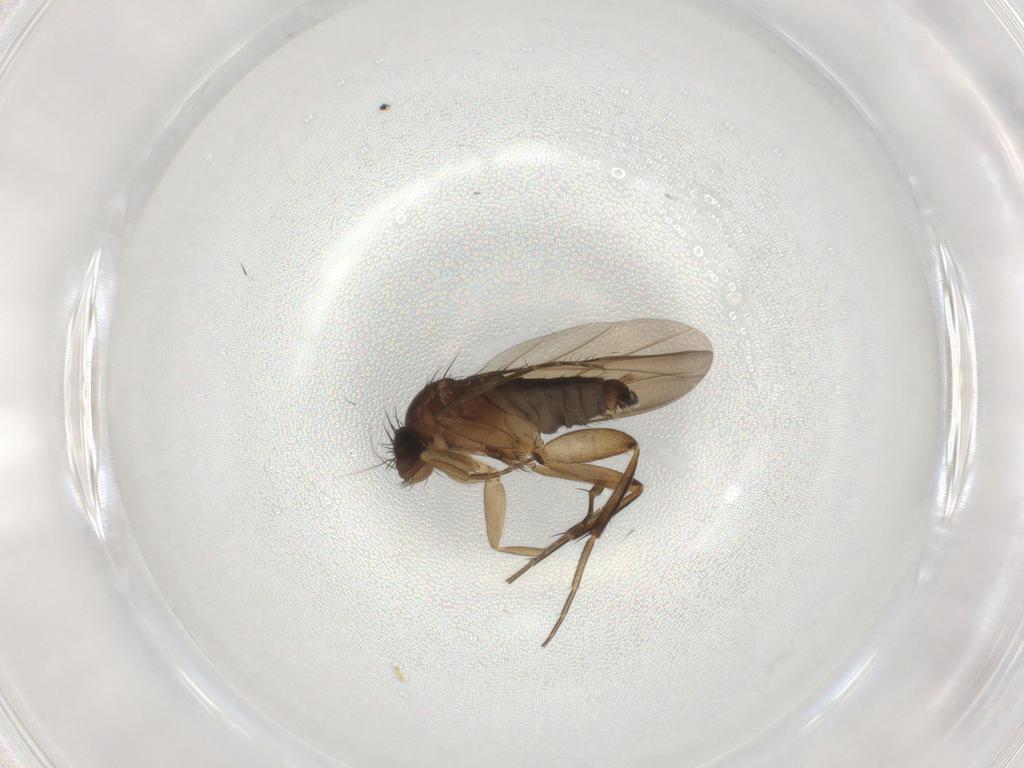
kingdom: Animalia
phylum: Arthropoda
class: Insecta
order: Diptera
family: Phoridae
